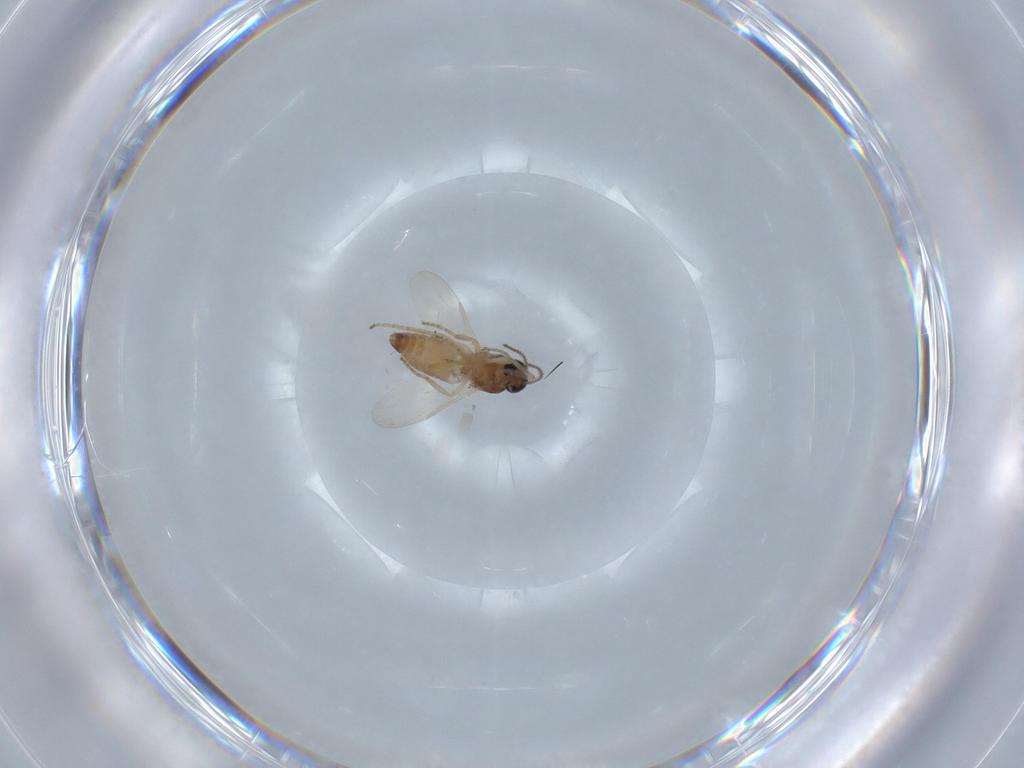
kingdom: Animalia
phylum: Arthropoda
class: Insecta
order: Diptera
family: Ceratopogonidae
